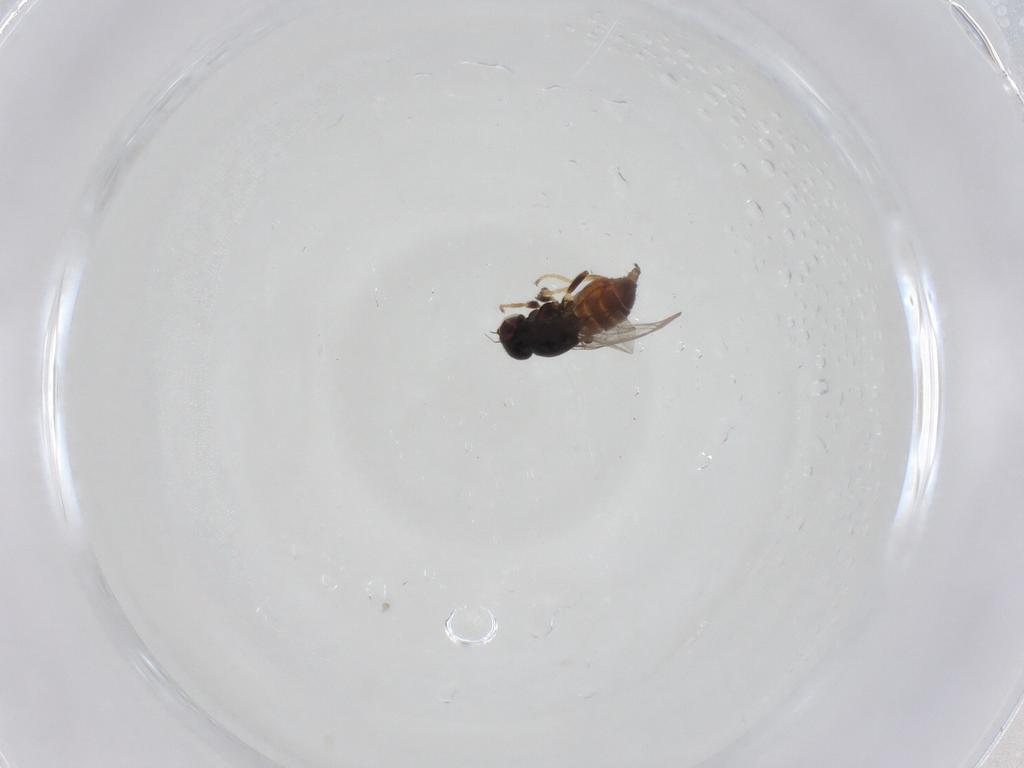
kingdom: Animalia
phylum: Arthropoda
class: Insecta
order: Diptera
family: Chloropidae
